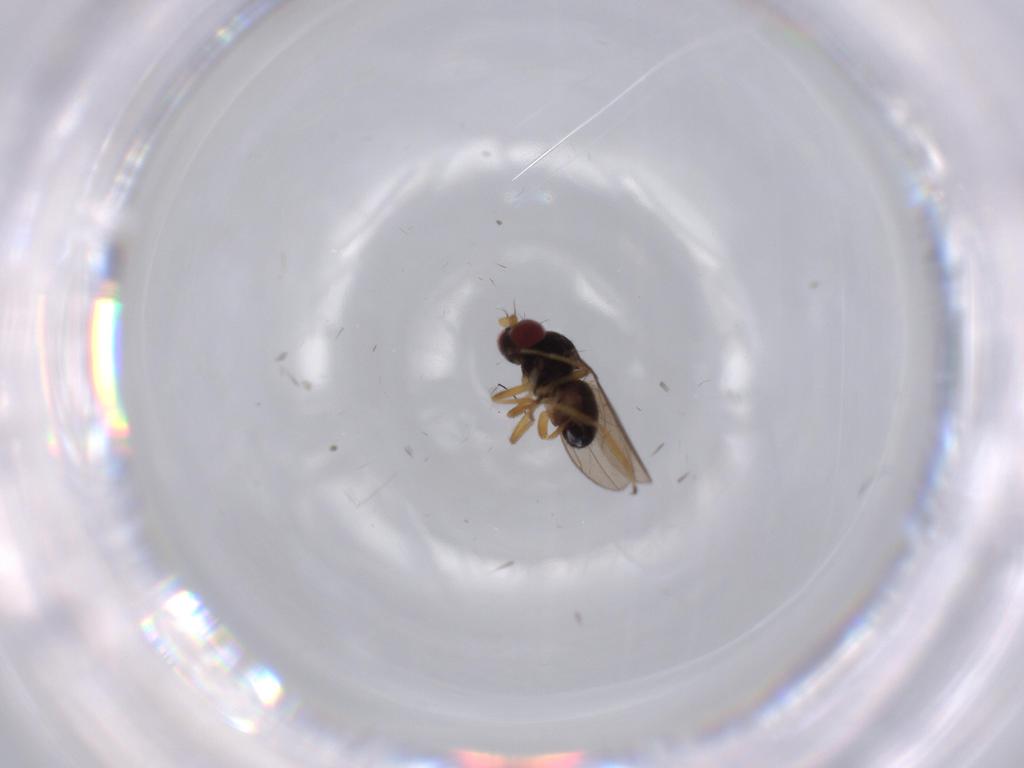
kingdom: Animalia
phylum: Arthropoda
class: Insecta
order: Diptera
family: Ephydridae
